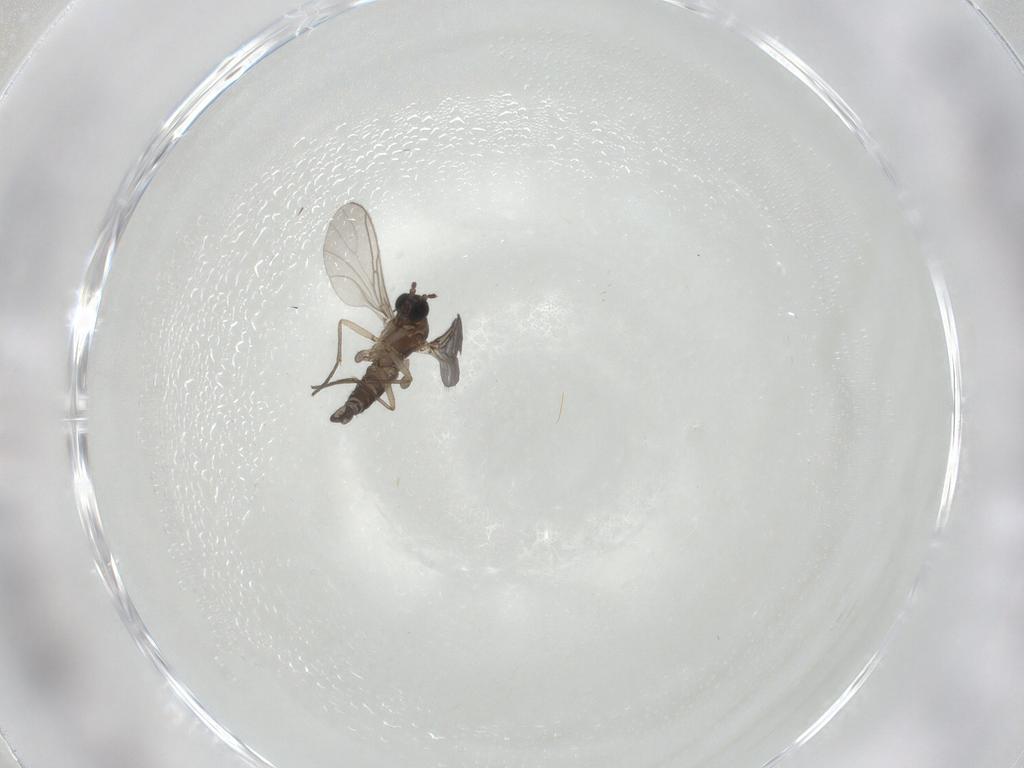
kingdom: Animalia
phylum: Arthropoda
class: Insecta
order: Diptera
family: Sciaridae
